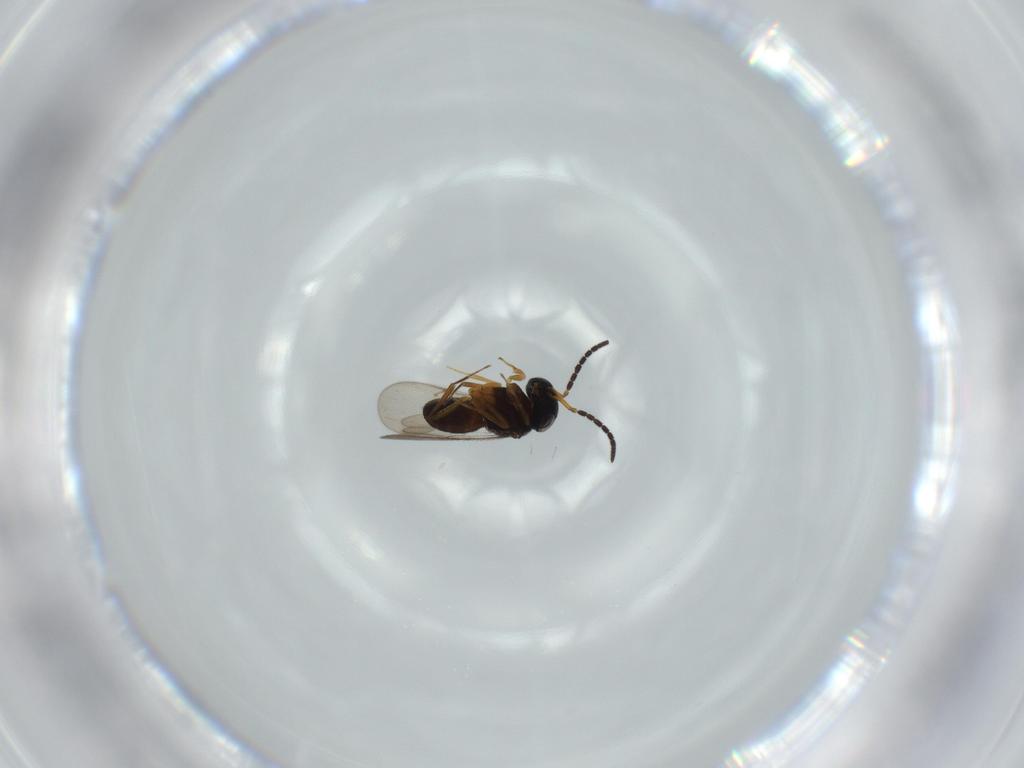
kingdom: Animalia
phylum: Arthropoda
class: Insecta
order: Hymenoptera
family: Scelionidae
